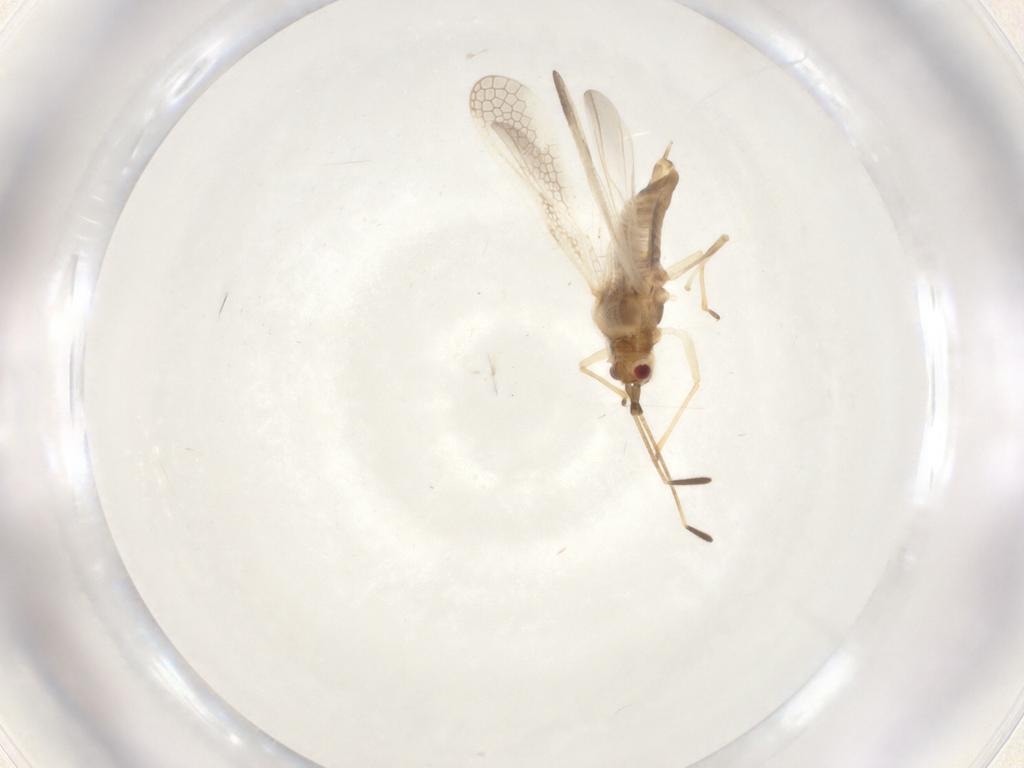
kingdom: Animalia
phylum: Arthropoda
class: Insecta
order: Hemiptera
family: Tingidae
